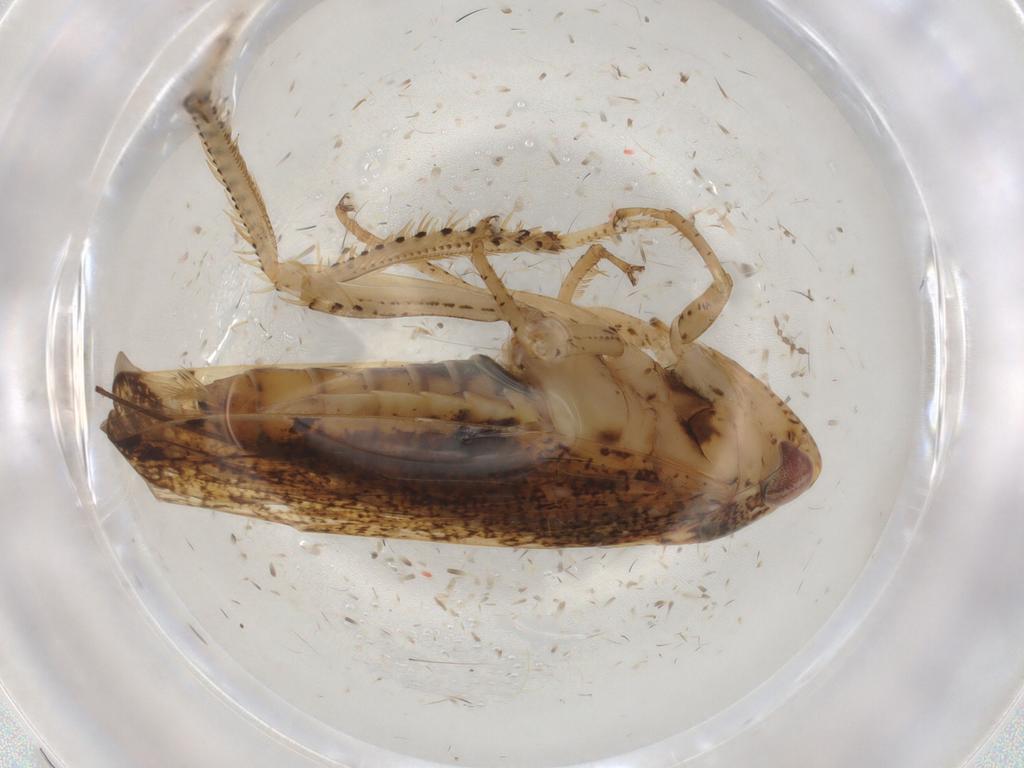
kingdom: Animalia
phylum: Arthropoda
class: Insecta
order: Hemiptera
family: Cicadellidae
